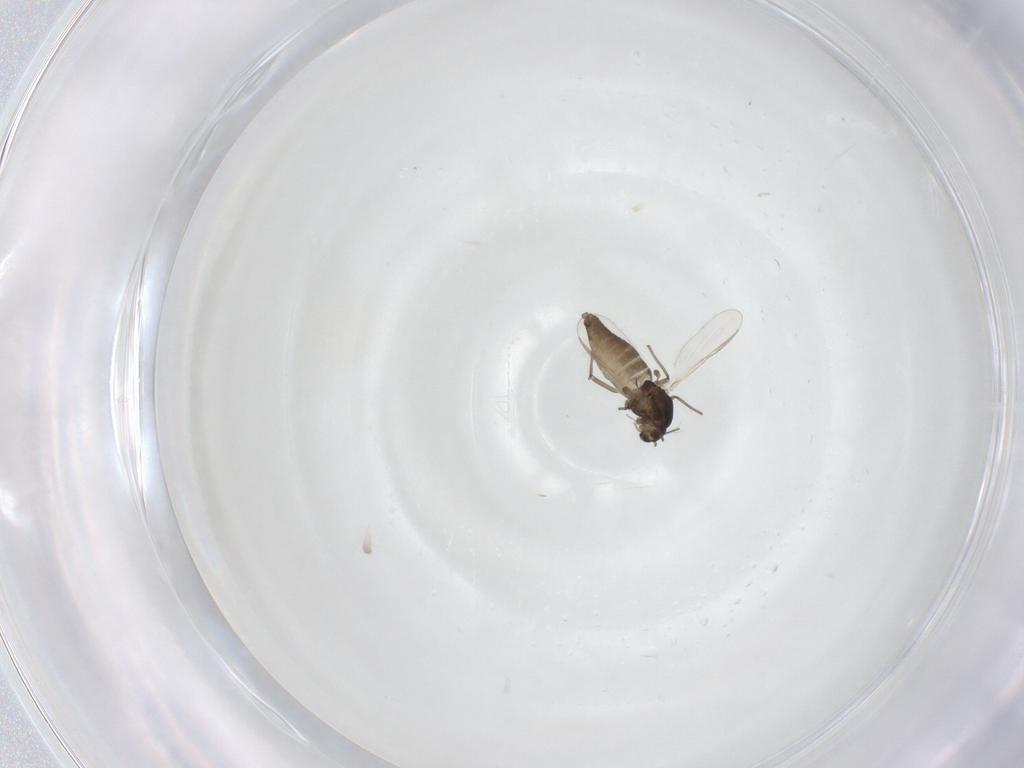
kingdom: Animalia
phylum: Arthropoda
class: Insecta
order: Diptera
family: Chironomidae
